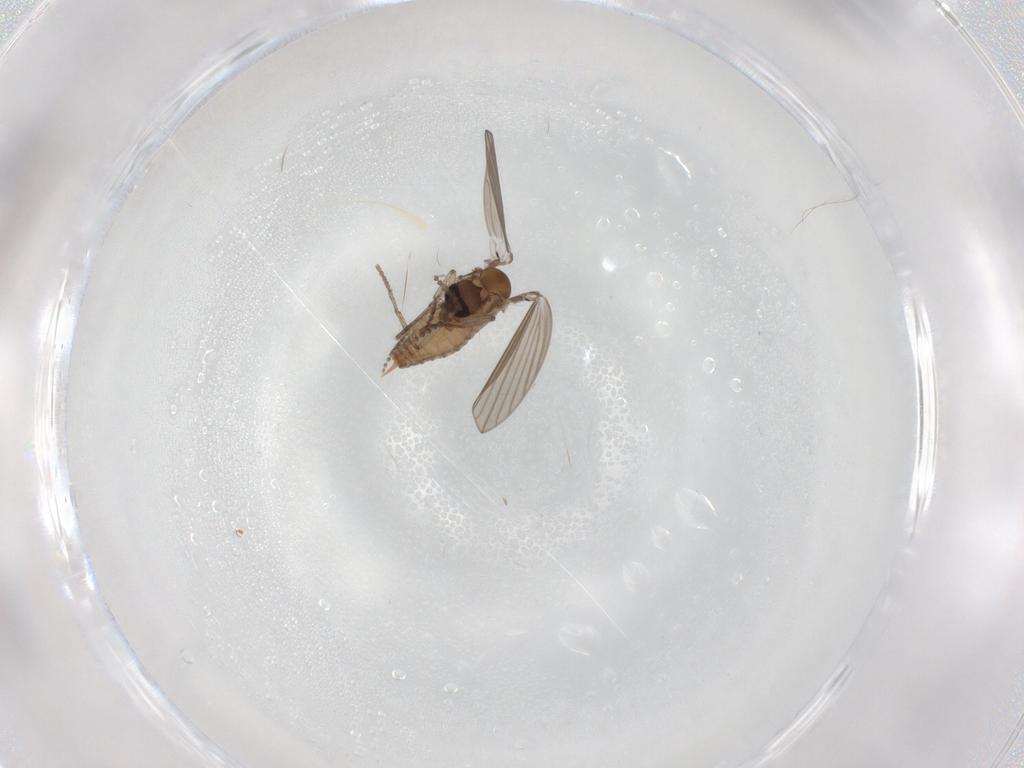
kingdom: Animalia
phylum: Arthropoda
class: Insecta
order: Diptera
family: Psychodidae
